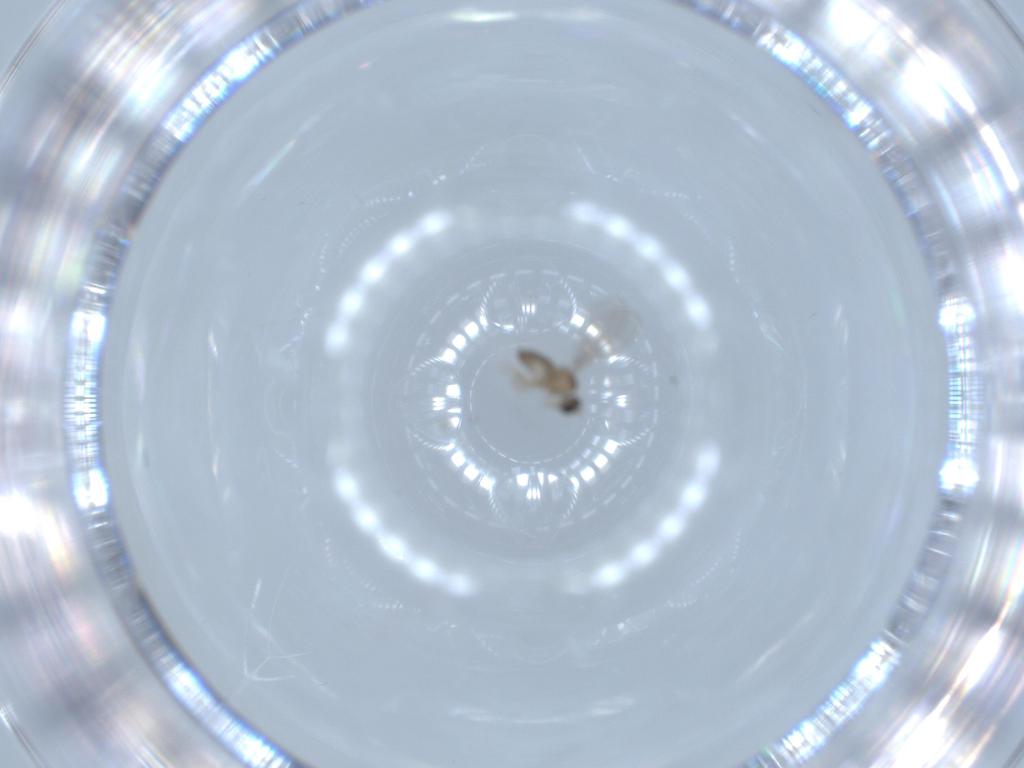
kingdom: Animalia
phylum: Arthropoda
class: Insecta
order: Diptera
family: Cecidomyiidae
